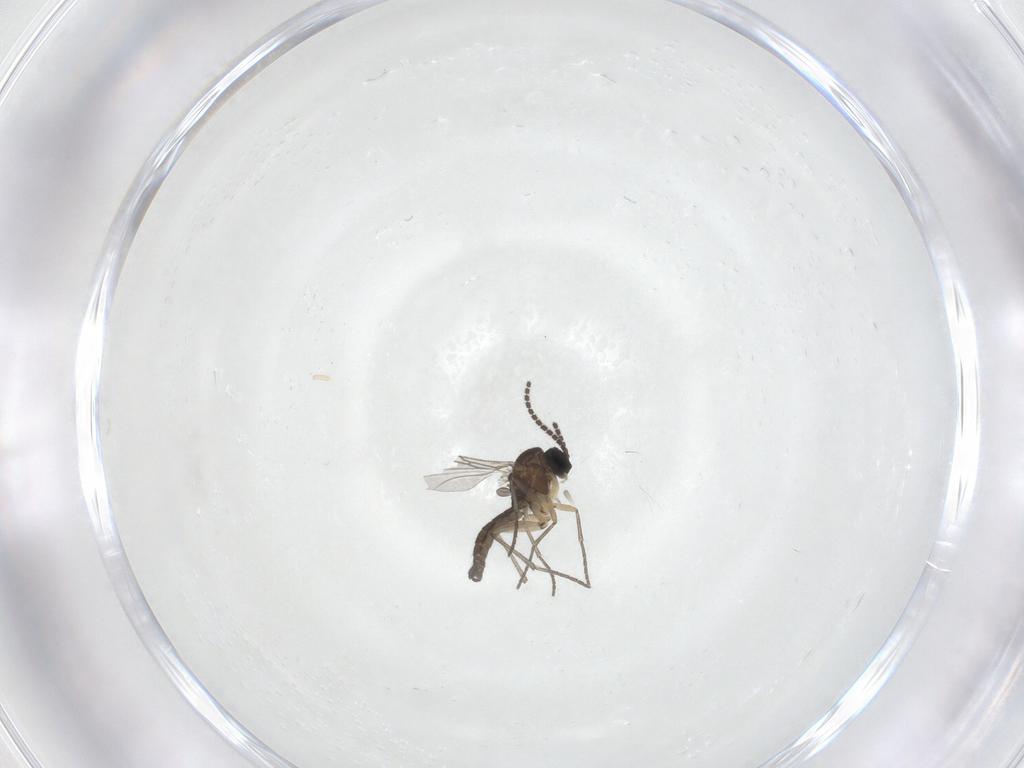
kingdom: Animalia
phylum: Arthropoda
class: Insecta
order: Diptera
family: Sciaridae
